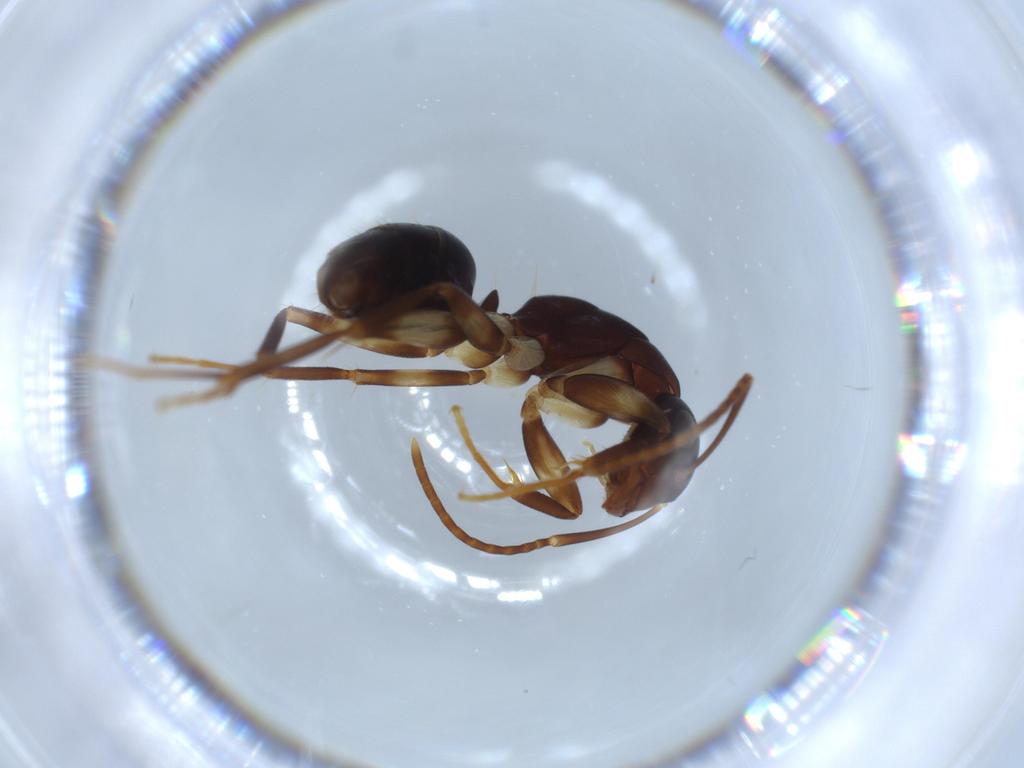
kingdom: Animalia
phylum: Arthropoda
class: Insecta
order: Hymenoptera
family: Formicidae
